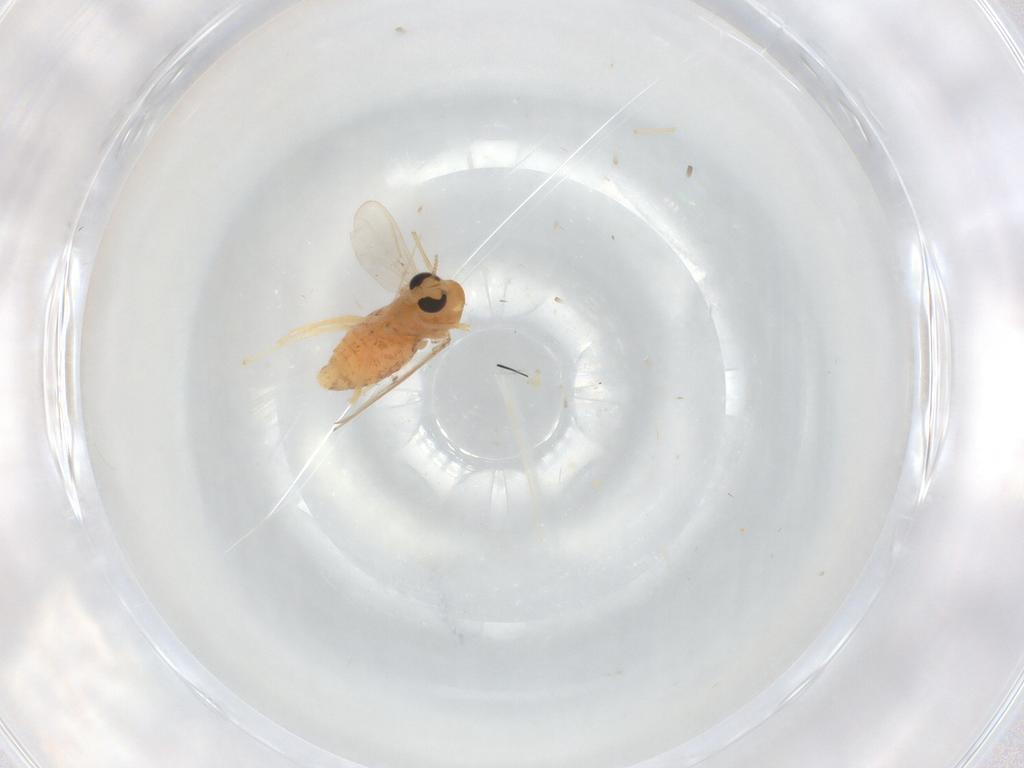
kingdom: Animalia
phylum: Arthropoda
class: Insecta
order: Diptera
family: Chironomidae
